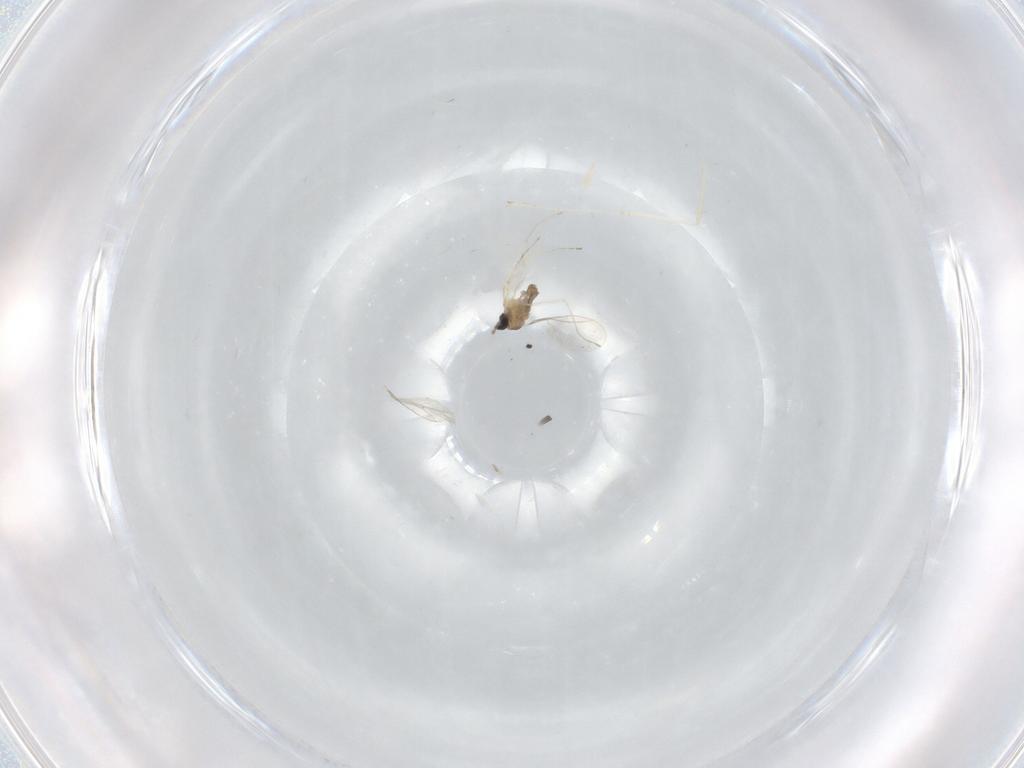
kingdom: Animalia
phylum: Arthropoda
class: Insecta
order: Diptera
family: Cecidomyiidae
